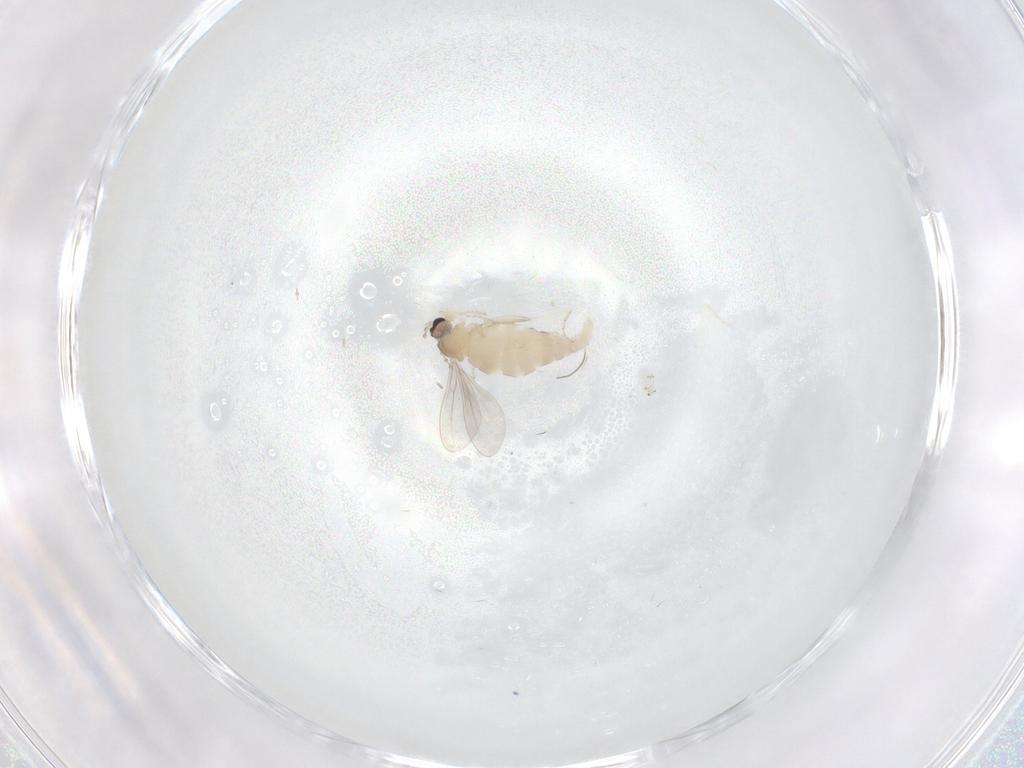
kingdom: Animalia
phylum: Arthropoda
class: Insecta
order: Diptera
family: Cecidomyiidae
